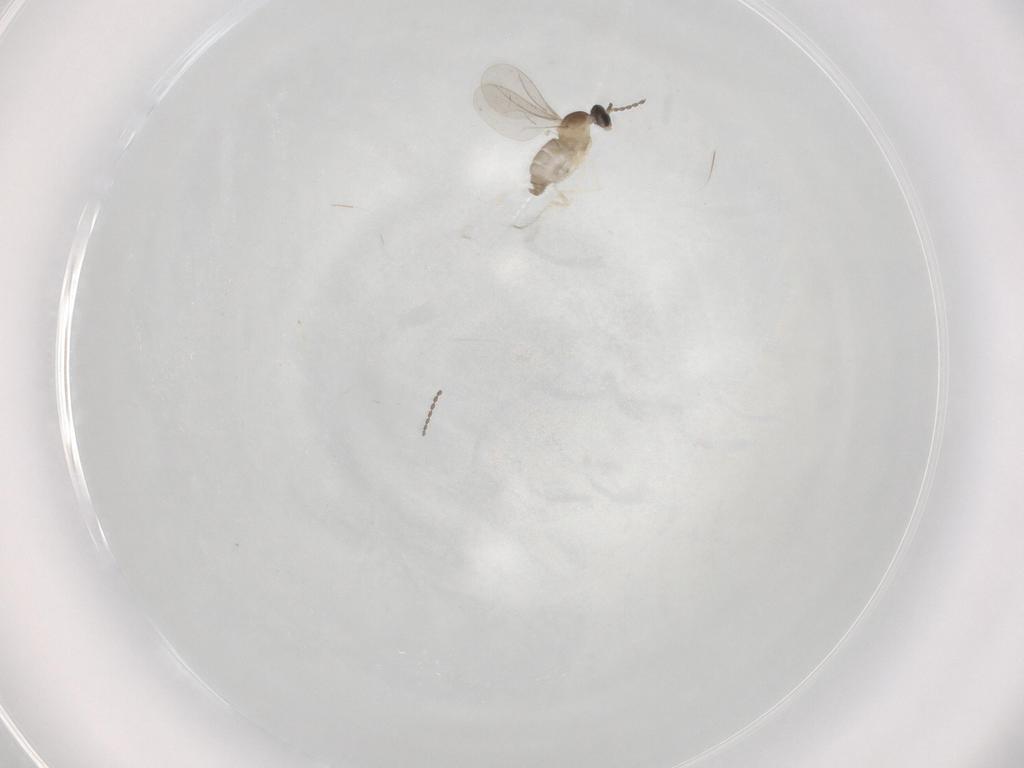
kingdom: Animalia
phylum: Arthropoda
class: Insecta
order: Diptera
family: Cecidomyiidae
